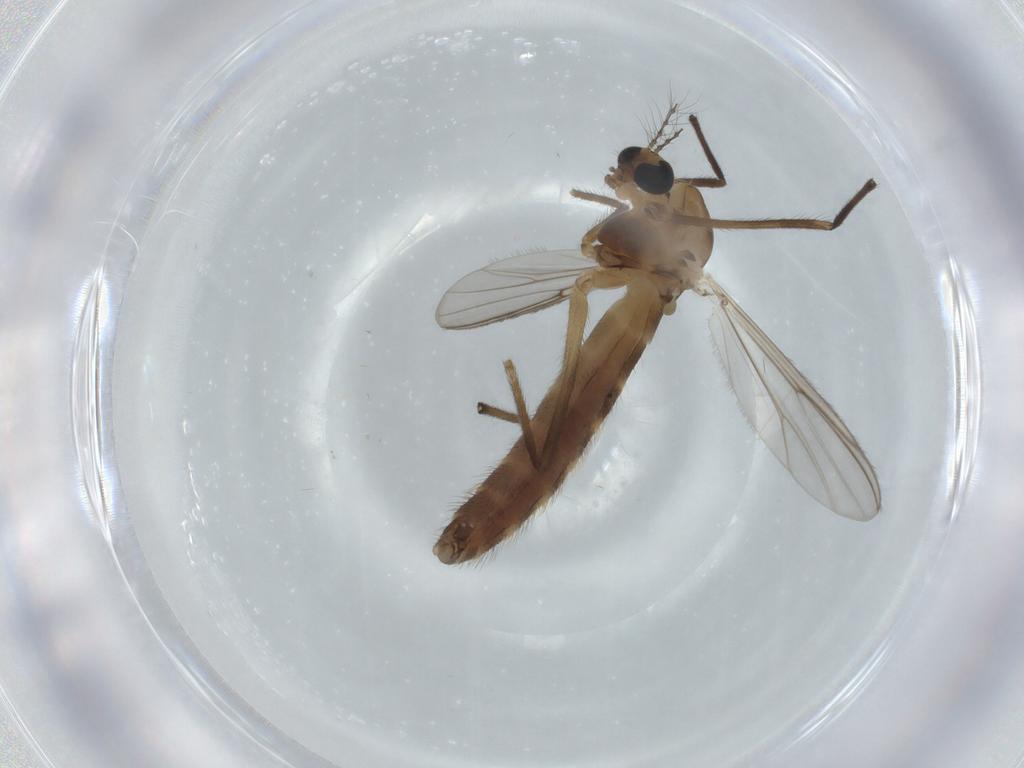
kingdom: Animalia
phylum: Arthropoda
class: Insecta
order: Diptera
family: Chironomidae
